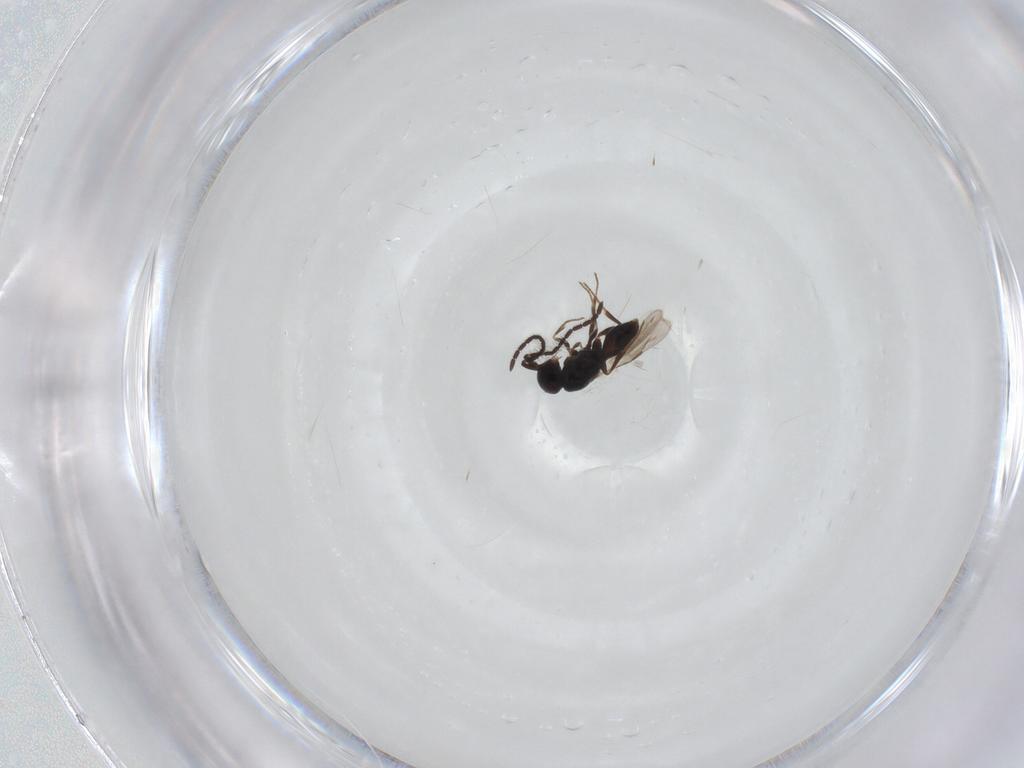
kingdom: Animalia
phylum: Arthropoda
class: Insecta
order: Hymenoptera
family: Megaspilidae
